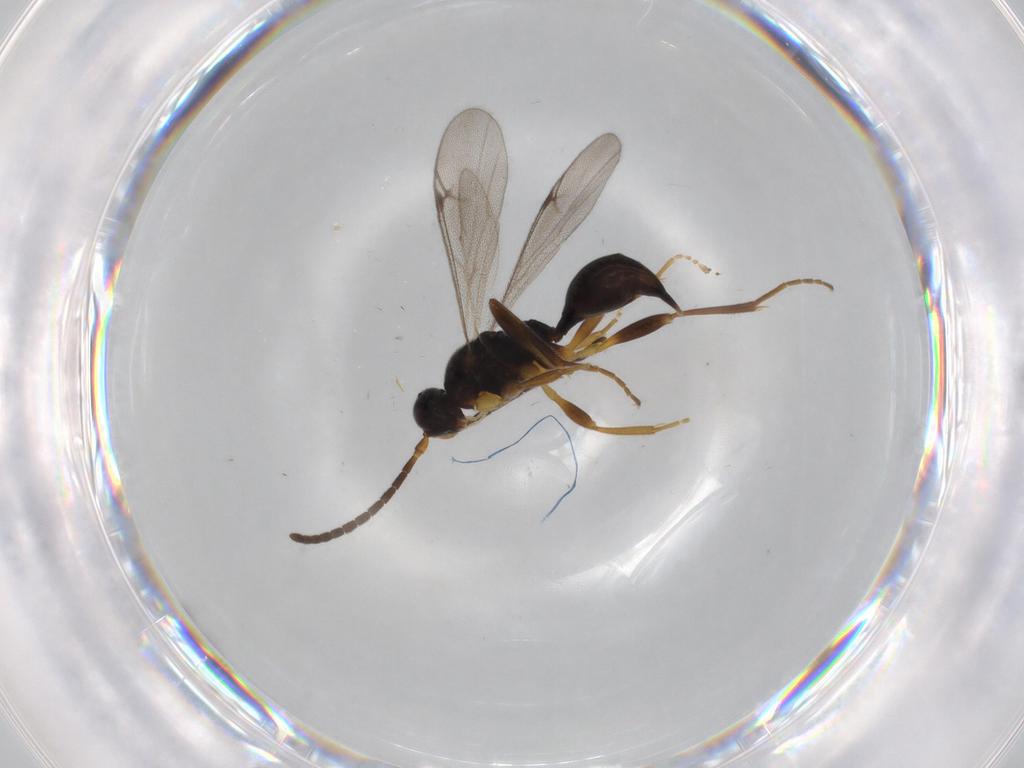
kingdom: Animalia
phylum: Arthropoda
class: Insecta
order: Hymenoptera
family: Proctotrupidae
